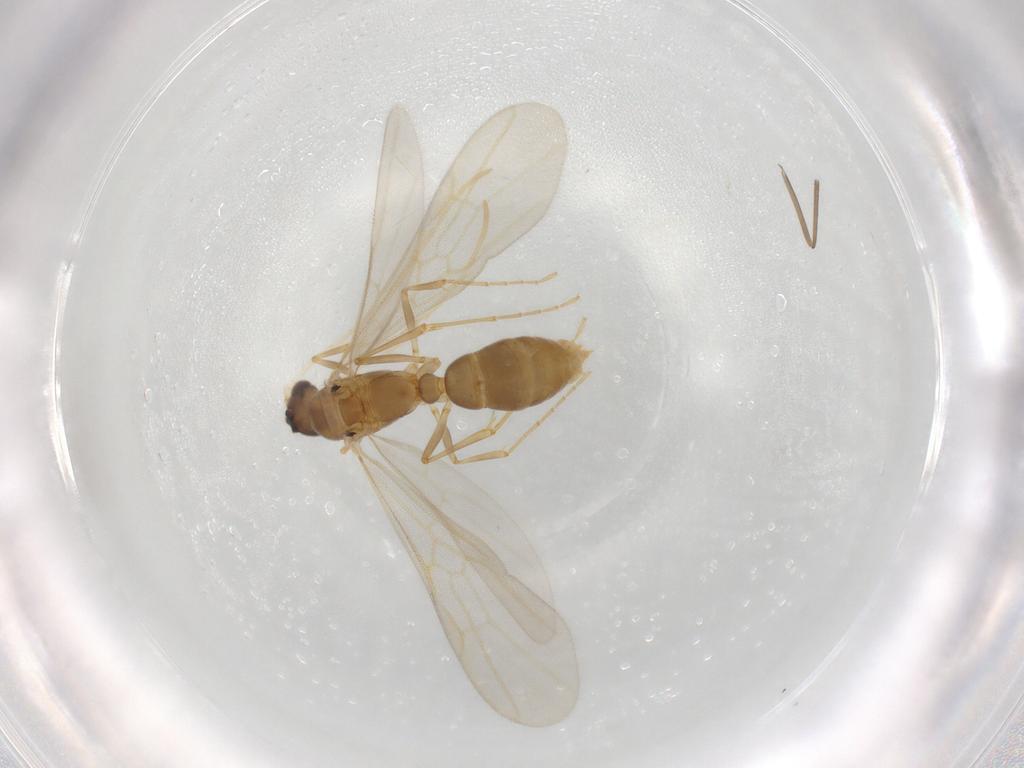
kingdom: Animalia
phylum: Arthropoda
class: Insecta
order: Hymenoptera
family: Formicidae
